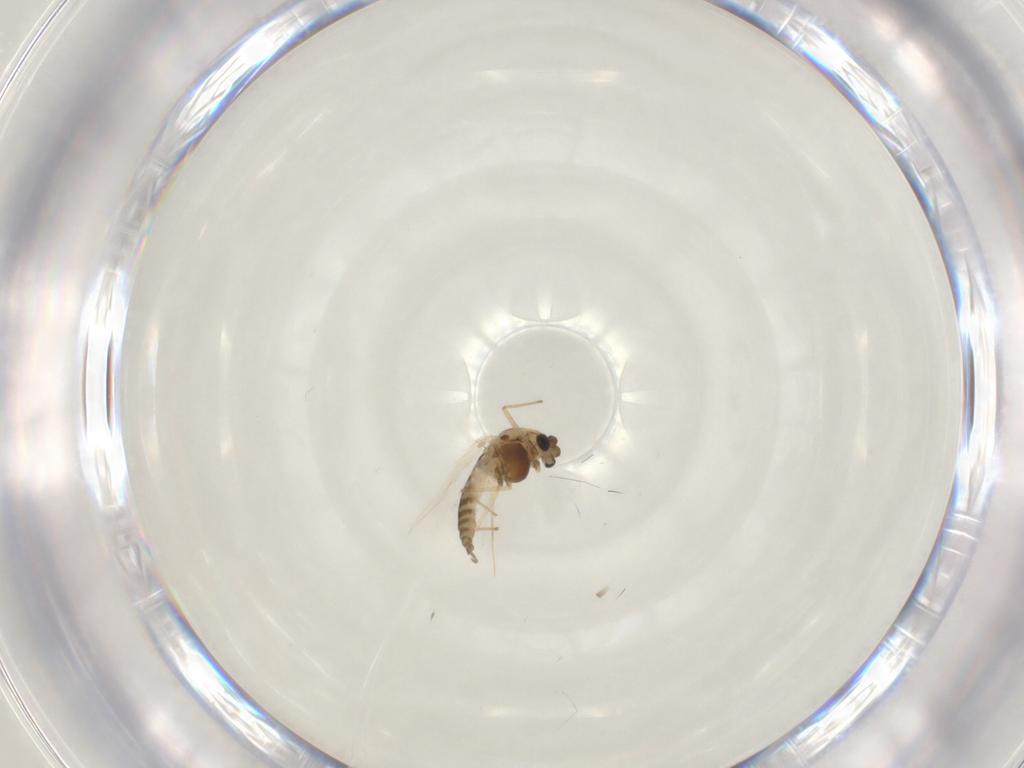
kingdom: Animalia
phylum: Arthropoda
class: Insecta
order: Diptera
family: Chironomidae
